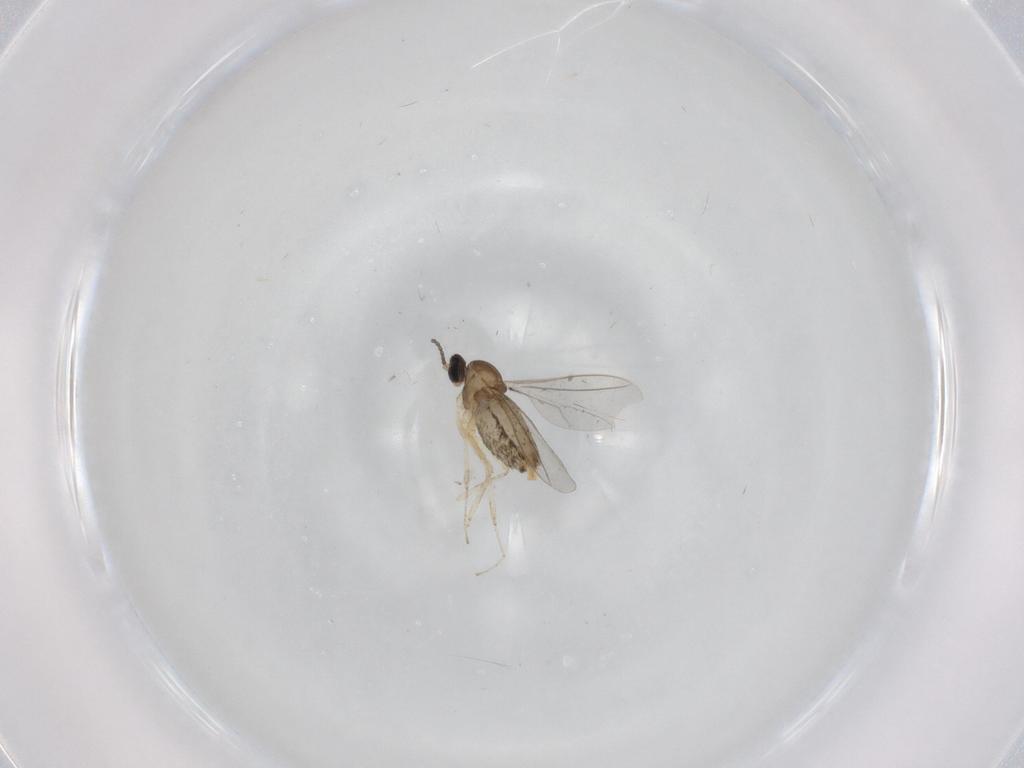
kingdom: Animalia
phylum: Arthropoda
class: Insecta
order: Diptera
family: Cecidomyiidae
